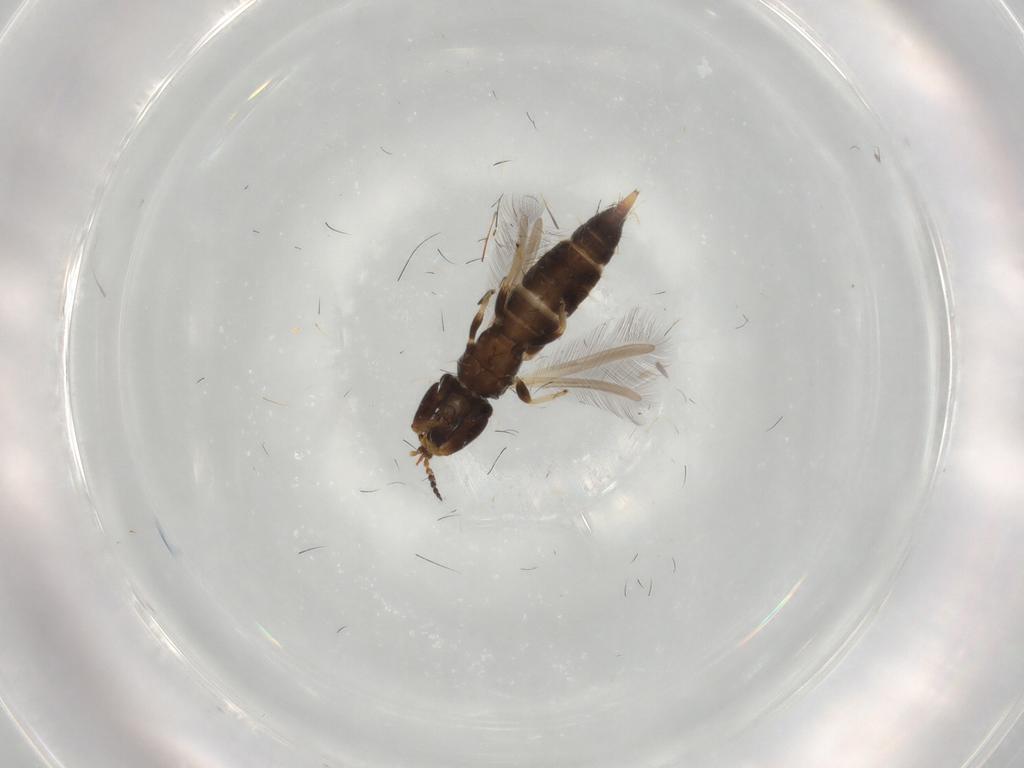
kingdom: Animalia
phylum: Arthropoda
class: Insecta
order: Thysanoptera
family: Phlaeothripidae
